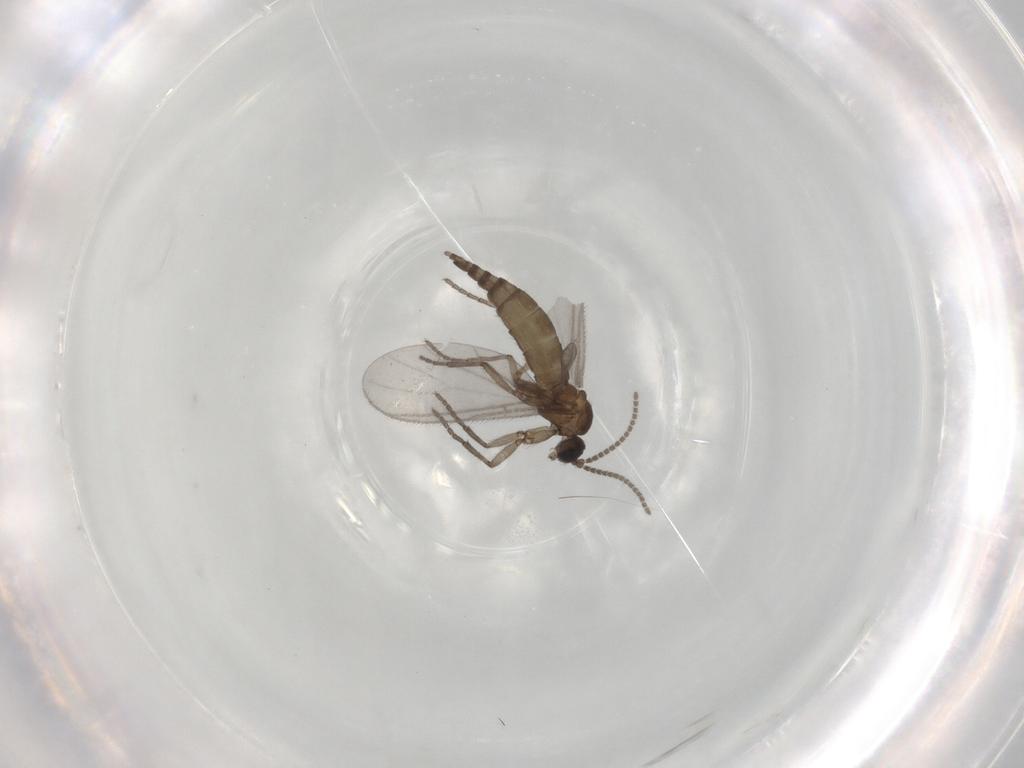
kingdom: Animalia
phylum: Arthropoda
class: Insecta
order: Diptera
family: Sciaridae
